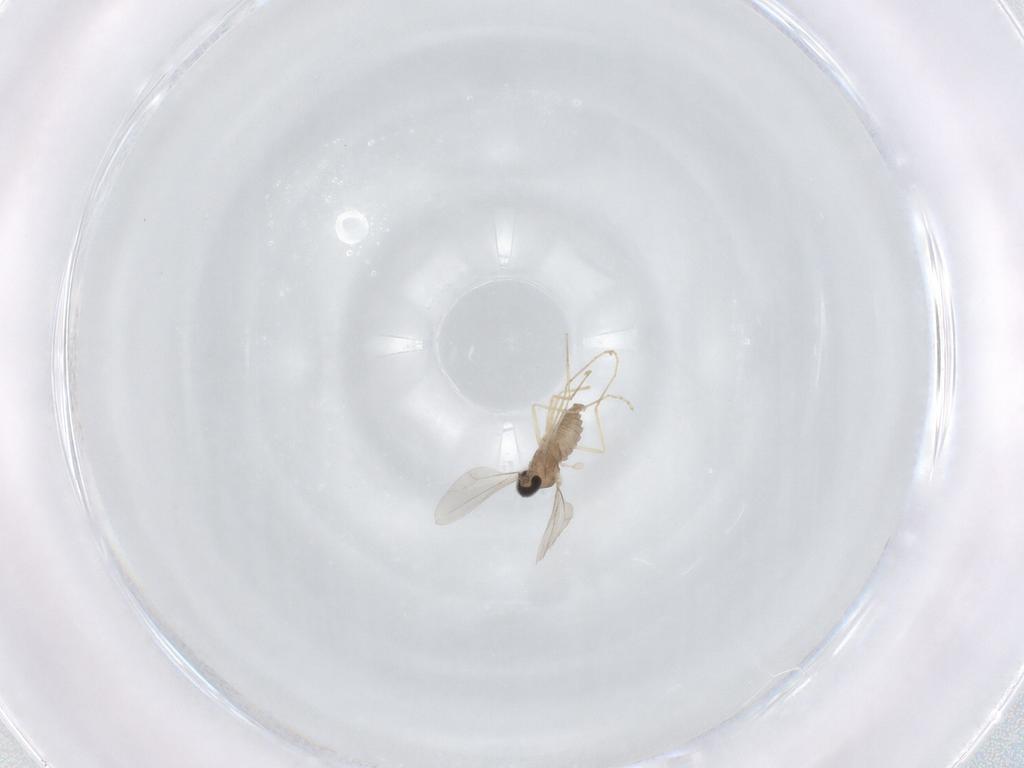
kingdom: Animalia
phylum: Arthropoda
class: Insecta
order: Diptera
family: Cecidomyiidae
